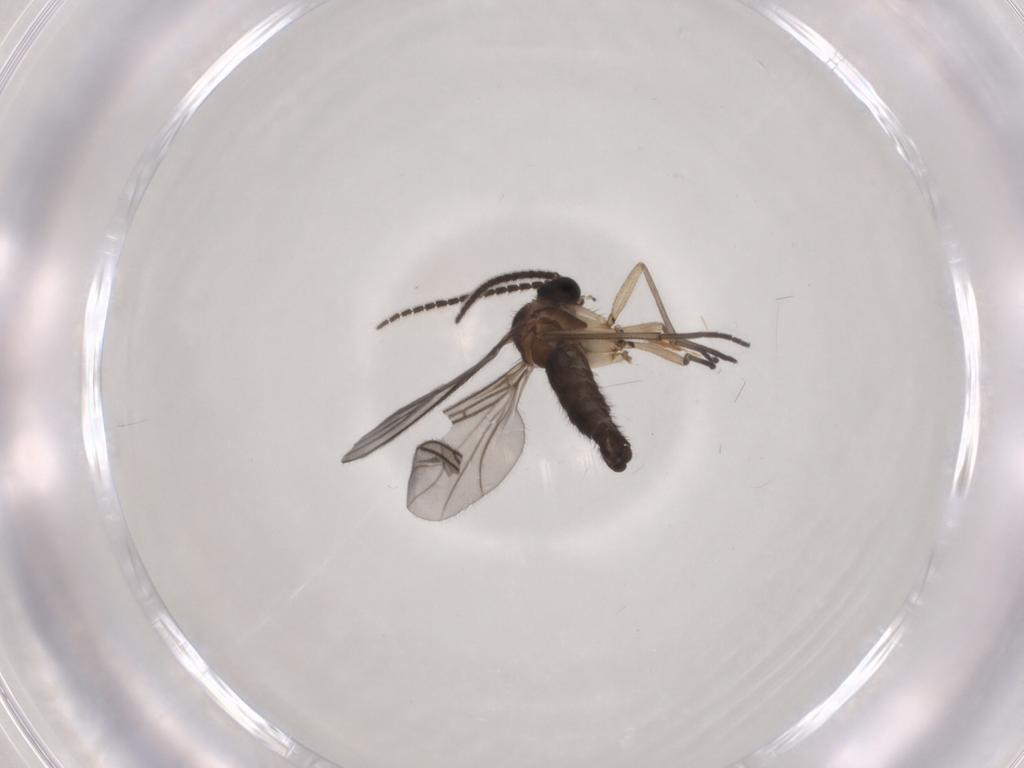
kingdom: Animalia
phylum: Arthropoda
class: Insecta
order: Diptera
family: Sciaridae
